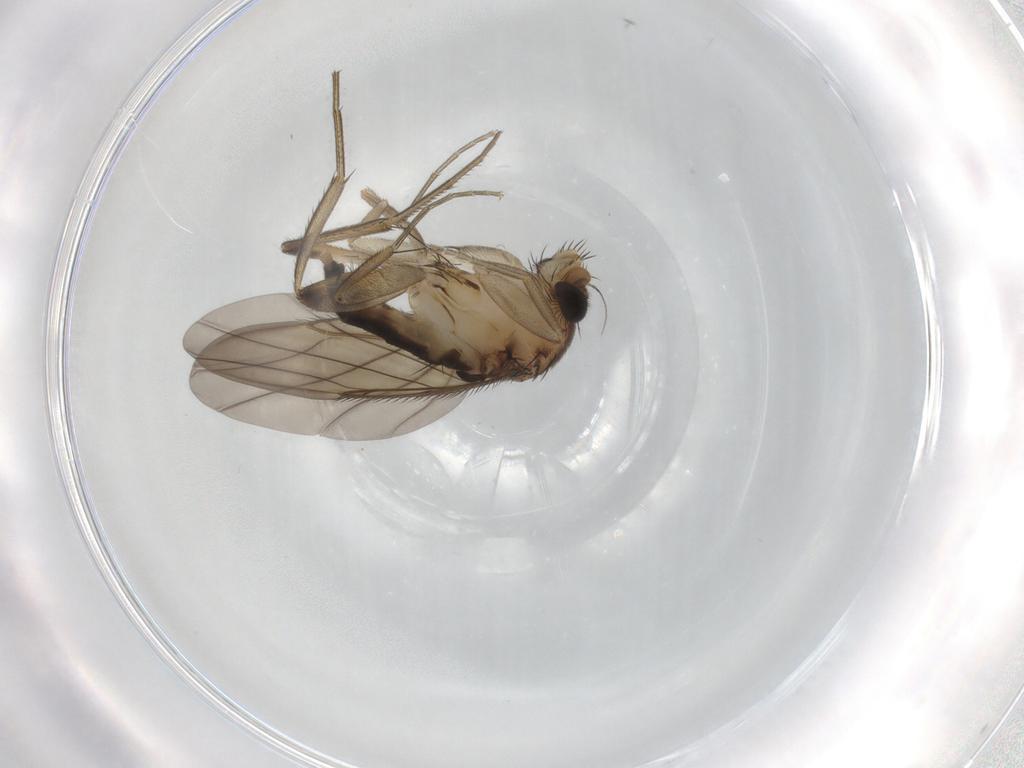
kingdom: Animalia
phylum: Arthropoda
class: Insecta
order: Diptera
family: Phoridae
